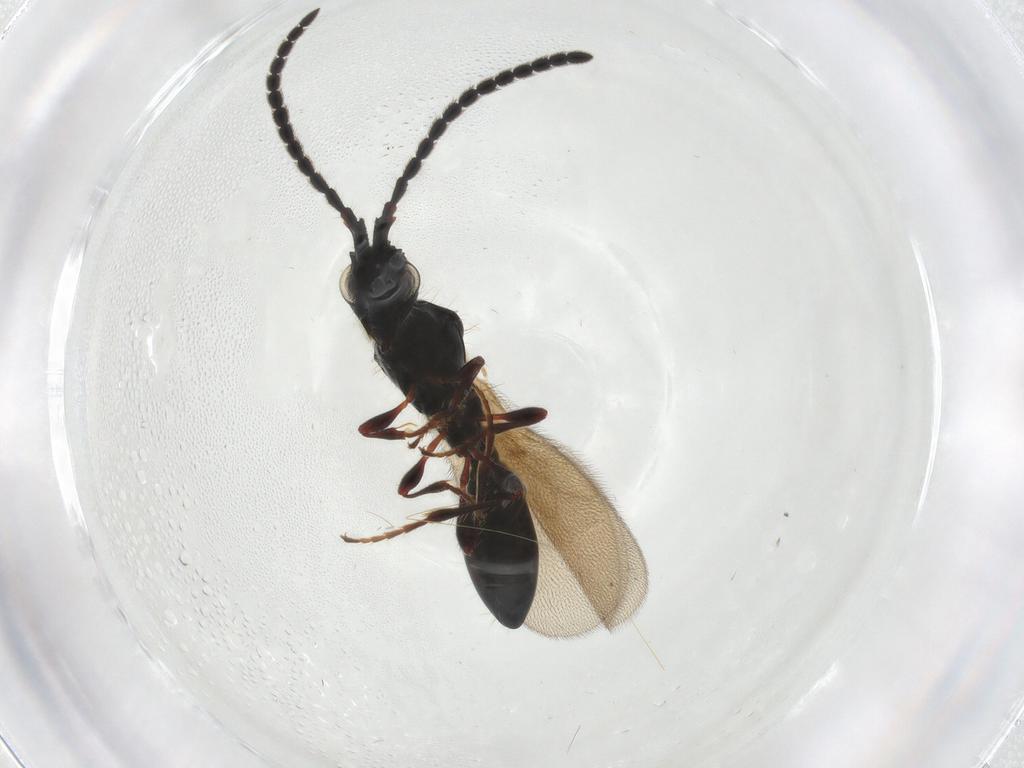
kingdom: Animalia
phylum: Arthropoda
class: Insecta
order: Hymenoptera
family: Diapriidae
